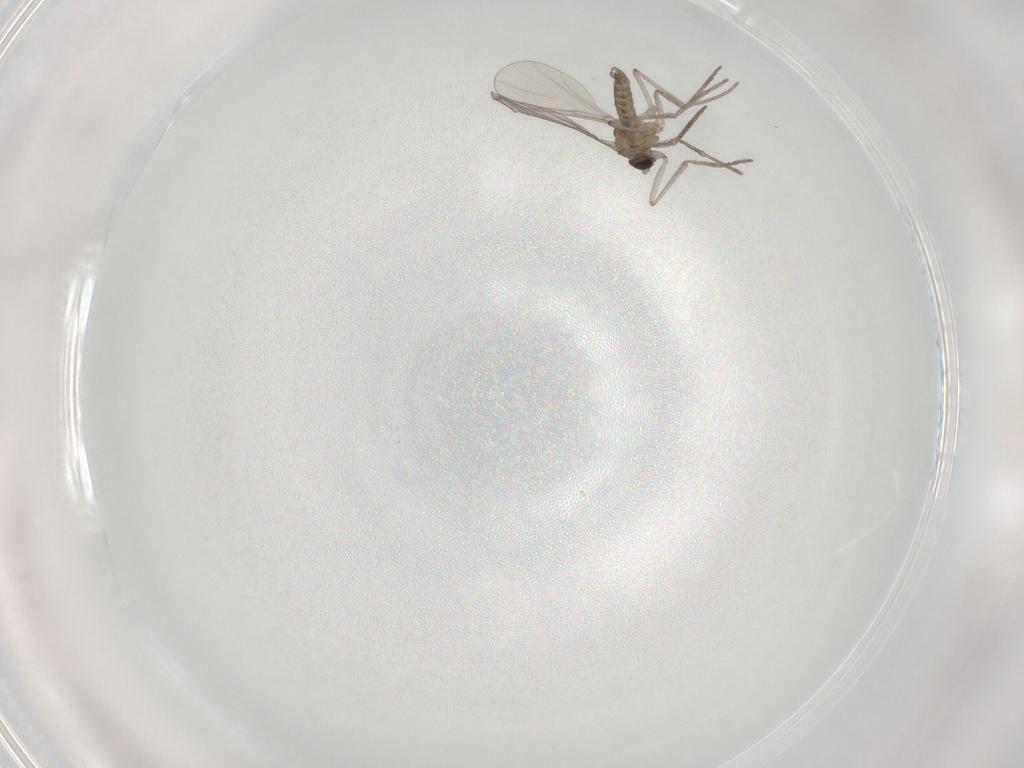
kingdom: Animalia
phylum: Arthropoda
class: Insecta
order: Diptera
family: Cecidomyiidae
